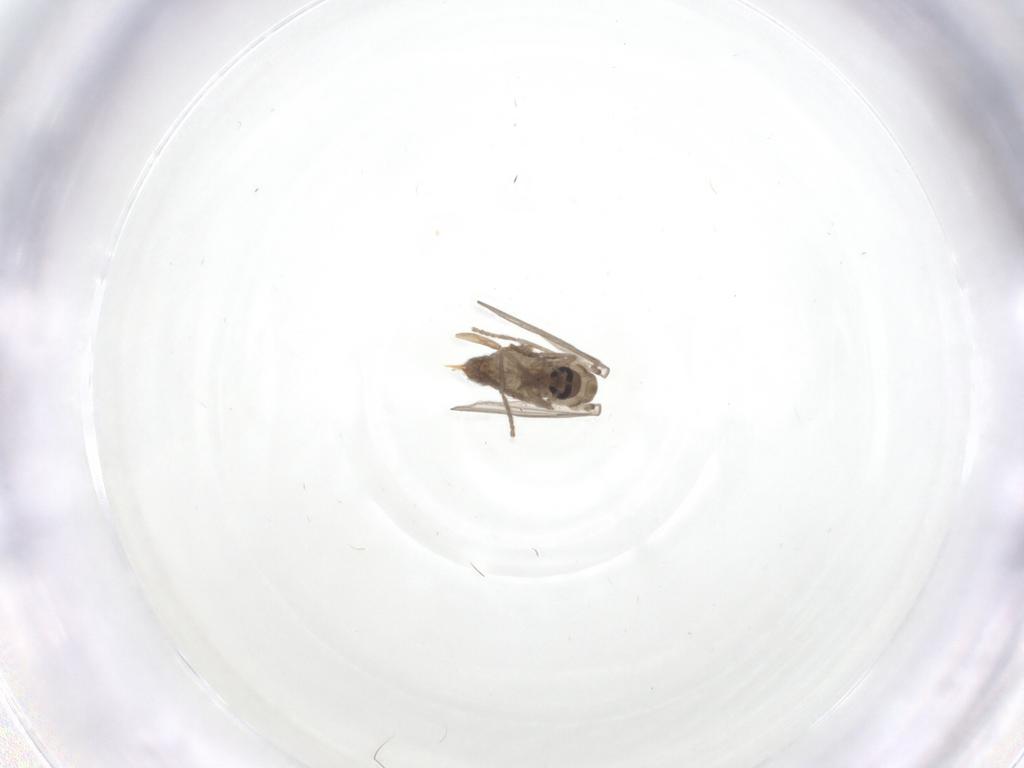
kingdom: Animalia
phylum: Arthropoda
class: Insecta
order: Diptera
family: Psychodidae
